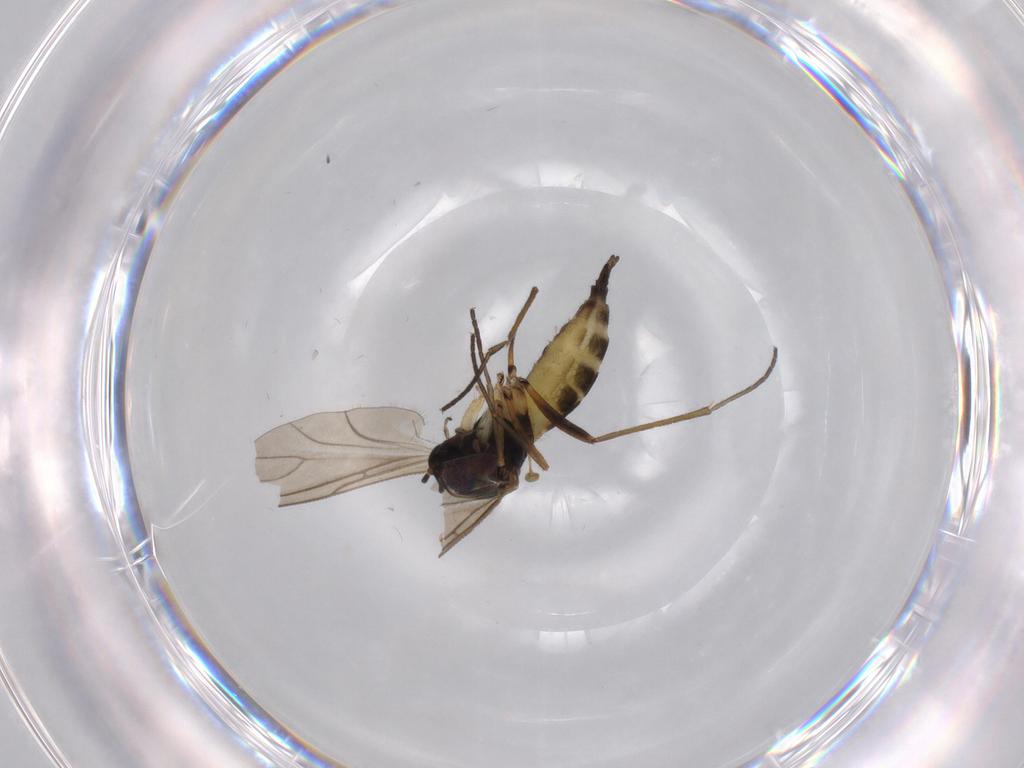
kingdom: Animalia
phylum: Arthropoda
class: Insecta
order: Diptera
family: Sciaridae
